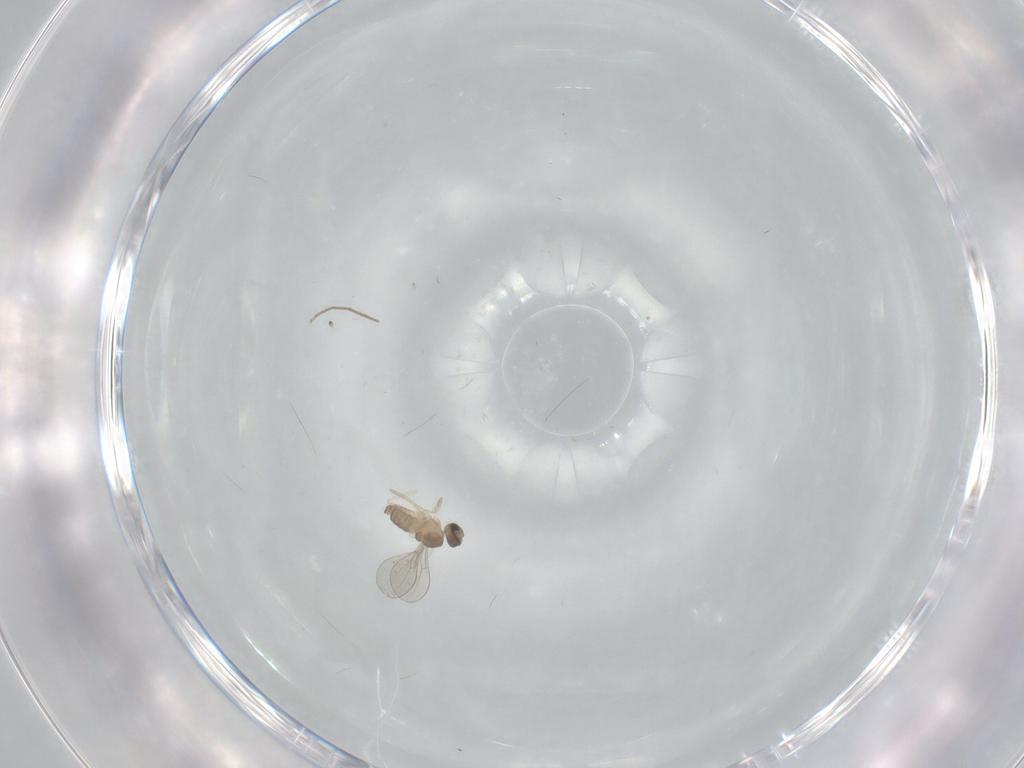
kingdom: Animalia
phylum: Arthropoda
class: Insecta
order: Diptera
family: Cecidomyiidae
